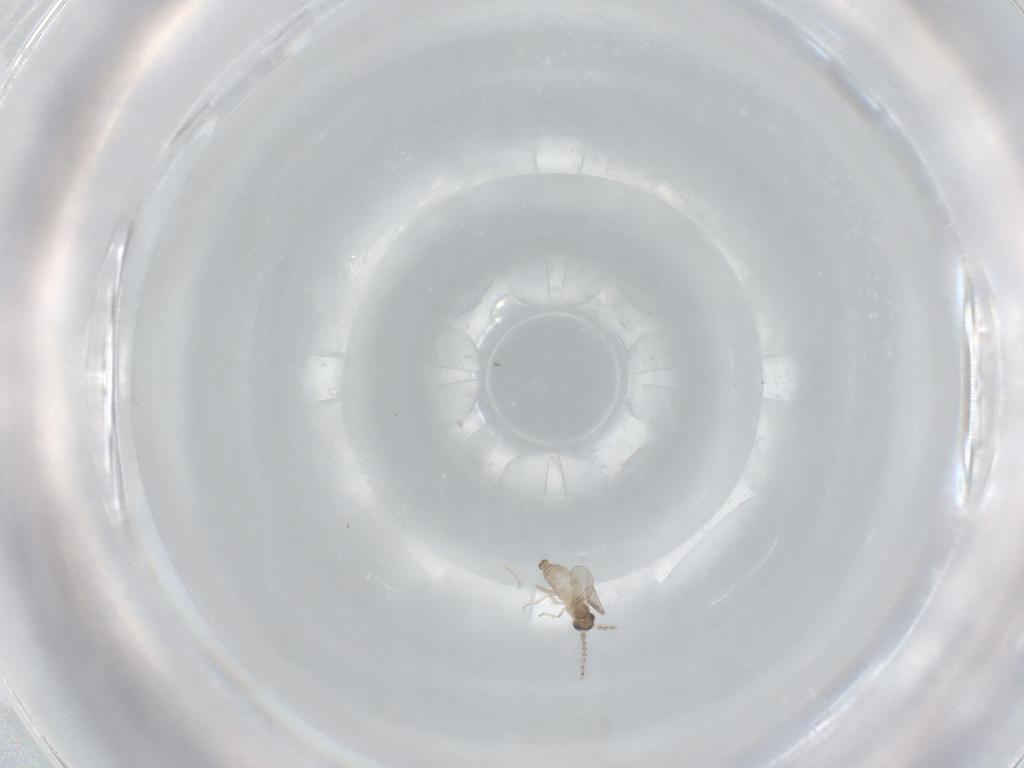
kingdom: Animalia
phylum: Arthropoda
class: Insecta
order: Diptera
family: Cecidomyiidae
